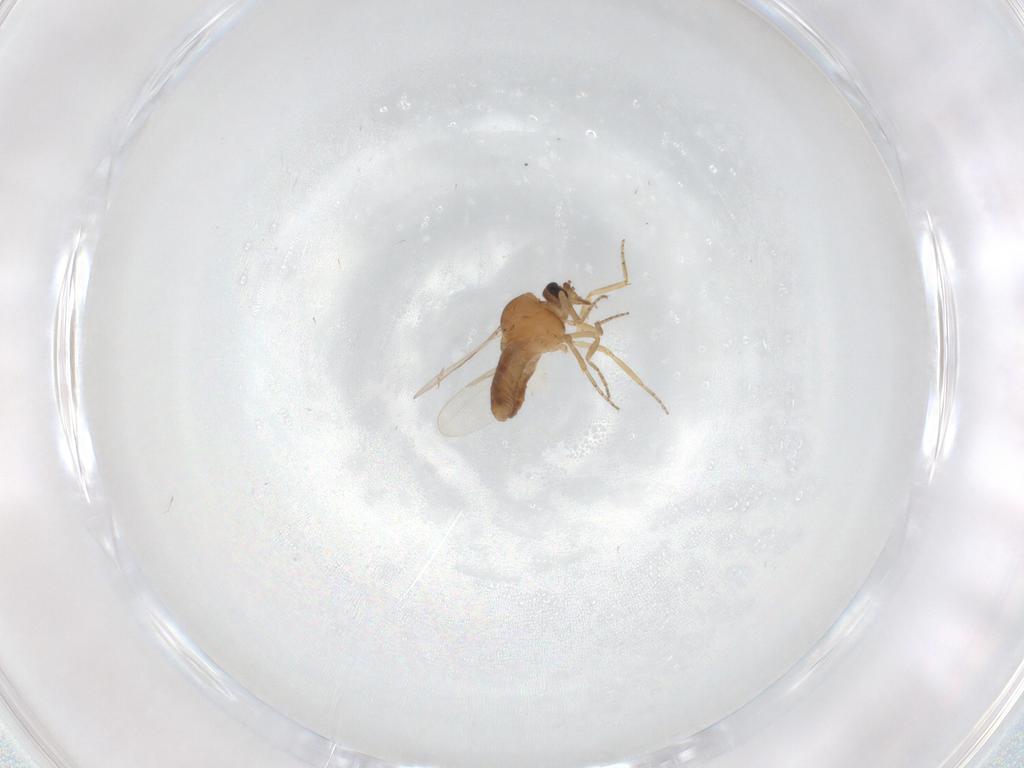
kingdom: Animalia
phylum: Arthropoda
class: Insecta
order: Diptera
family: Ceratopogonidae
